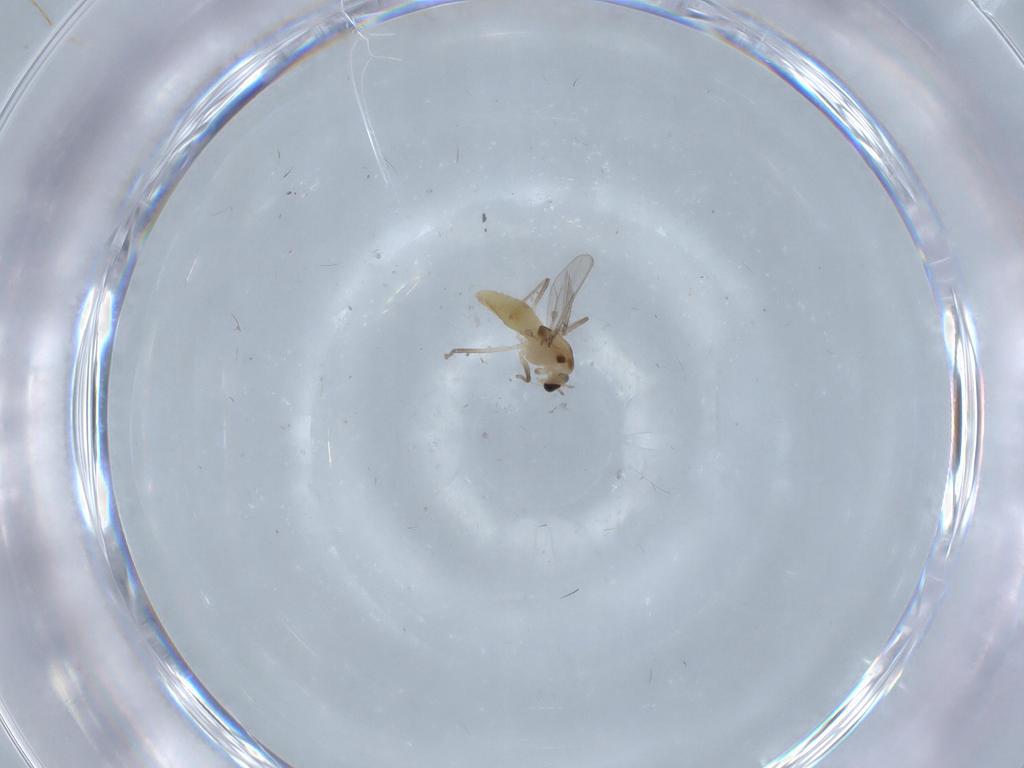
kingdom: Animalia
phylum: Arthropoda
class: Insecta
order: Diptera
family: Chironomidae
